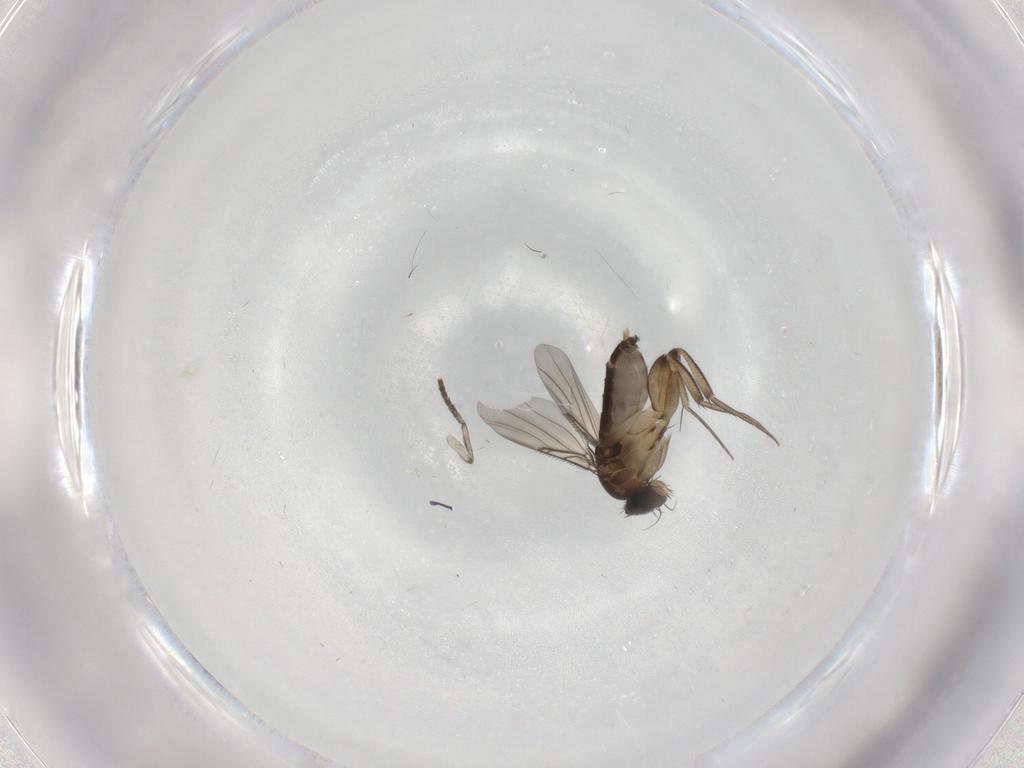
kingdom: Animalia
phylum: Arthropoda
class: Insecta
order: Diptera
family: Phoridae
